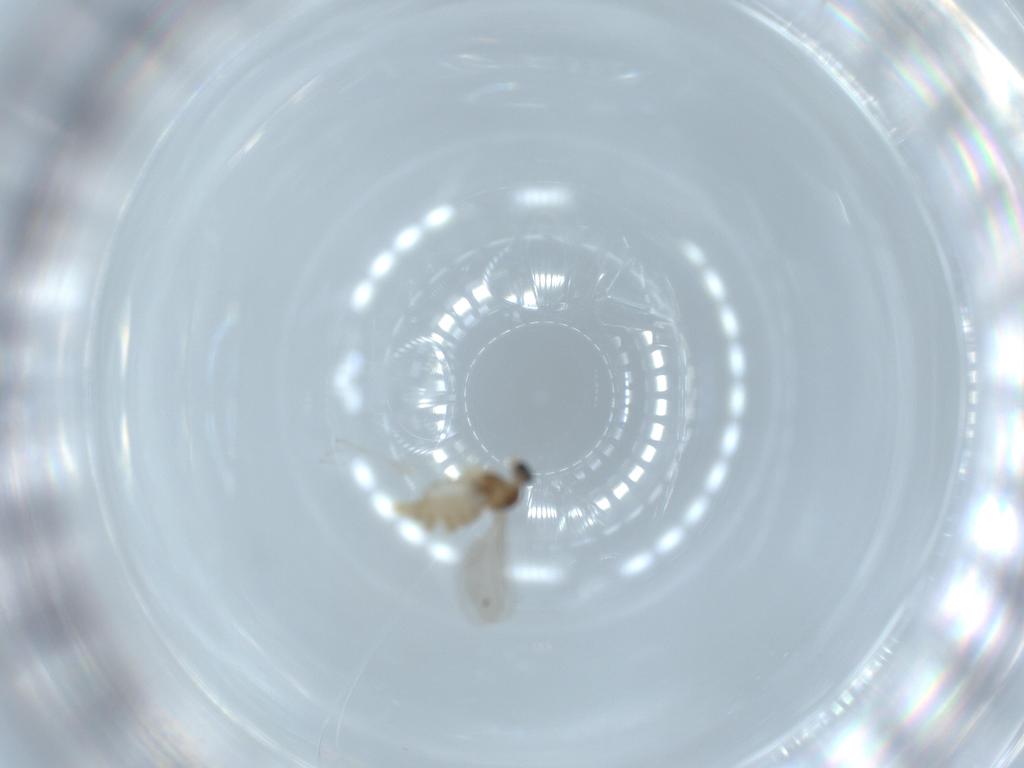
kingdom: Animalia
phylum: Arthropoda
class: Insecta
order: Diptera
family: Cecidomyiidae
